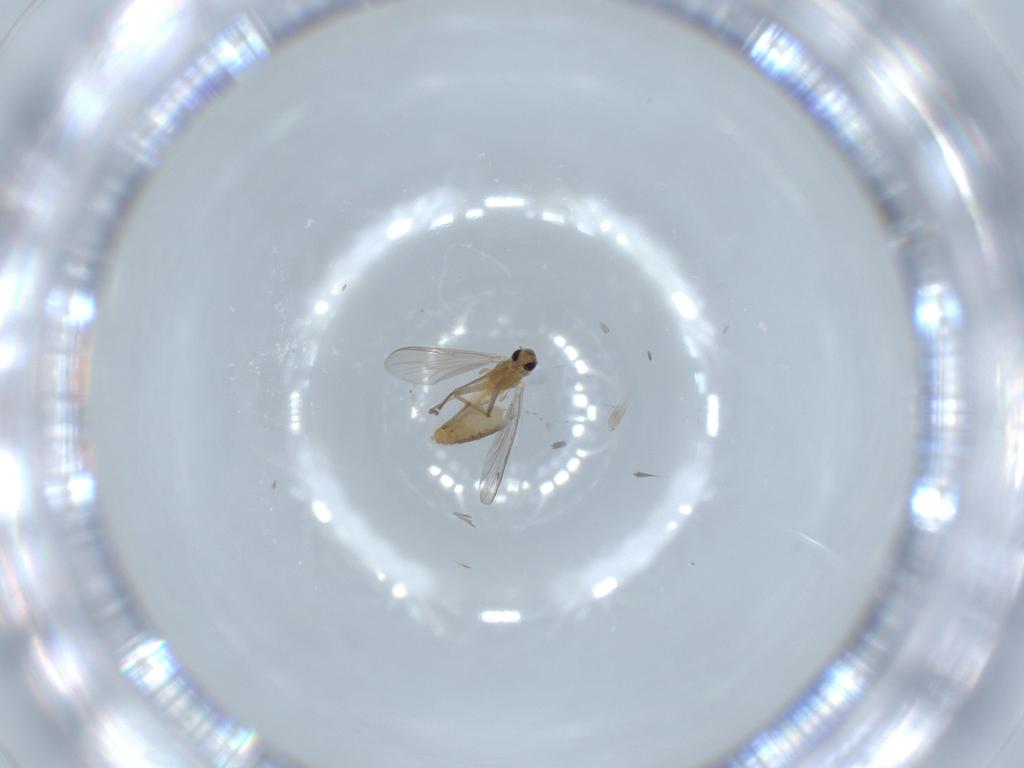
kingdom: Animalia
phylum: Arthropoda
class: Insecta
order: Diptera
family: Chironomidae
